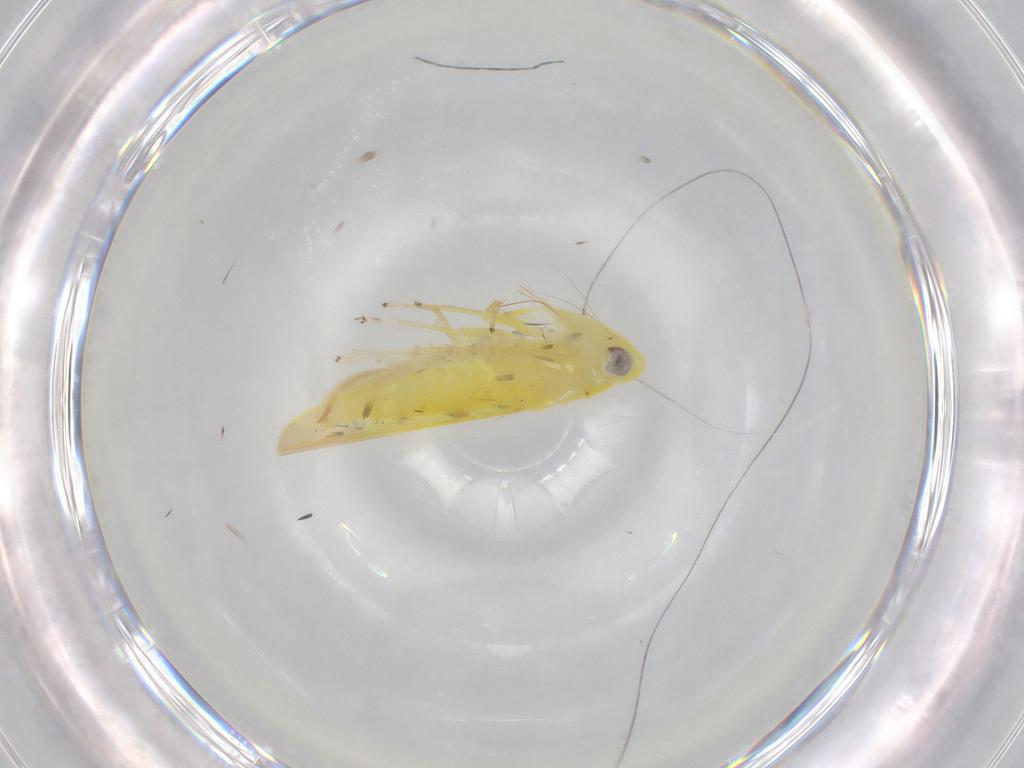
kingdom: Animalia
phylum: Arthropoda
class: Insecta
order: Hemiptera
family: Cicadellidae
